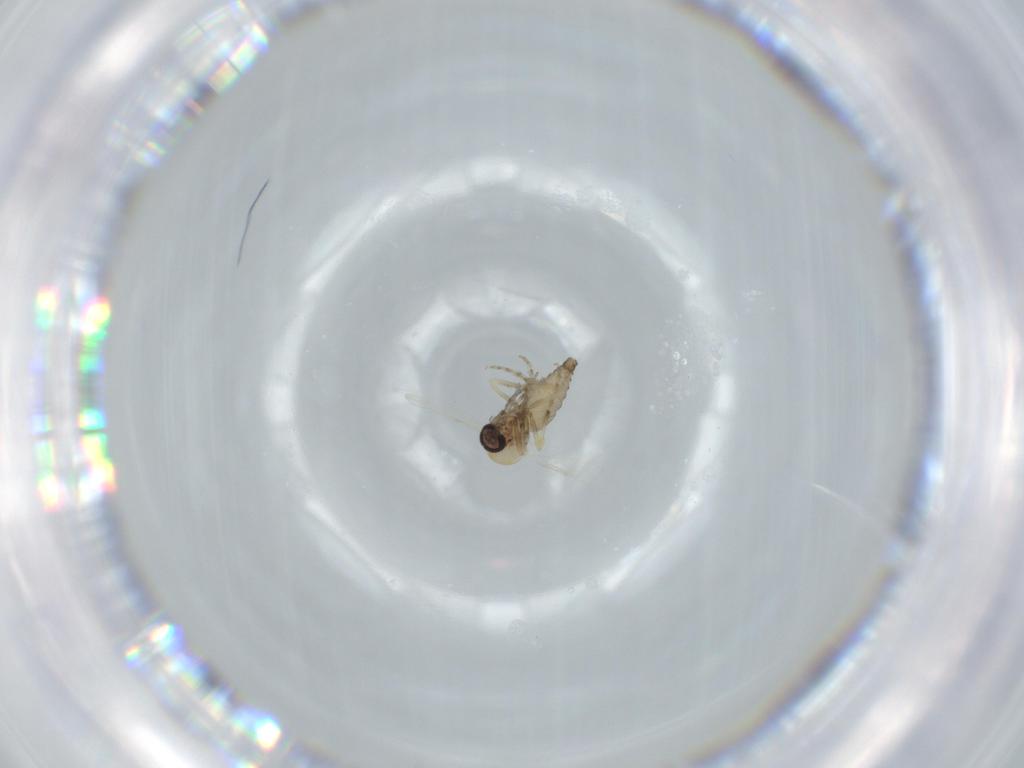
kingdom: Animalia
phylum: Arthropoda
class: Insecta
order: Diptera
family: Ceratopogonidae
